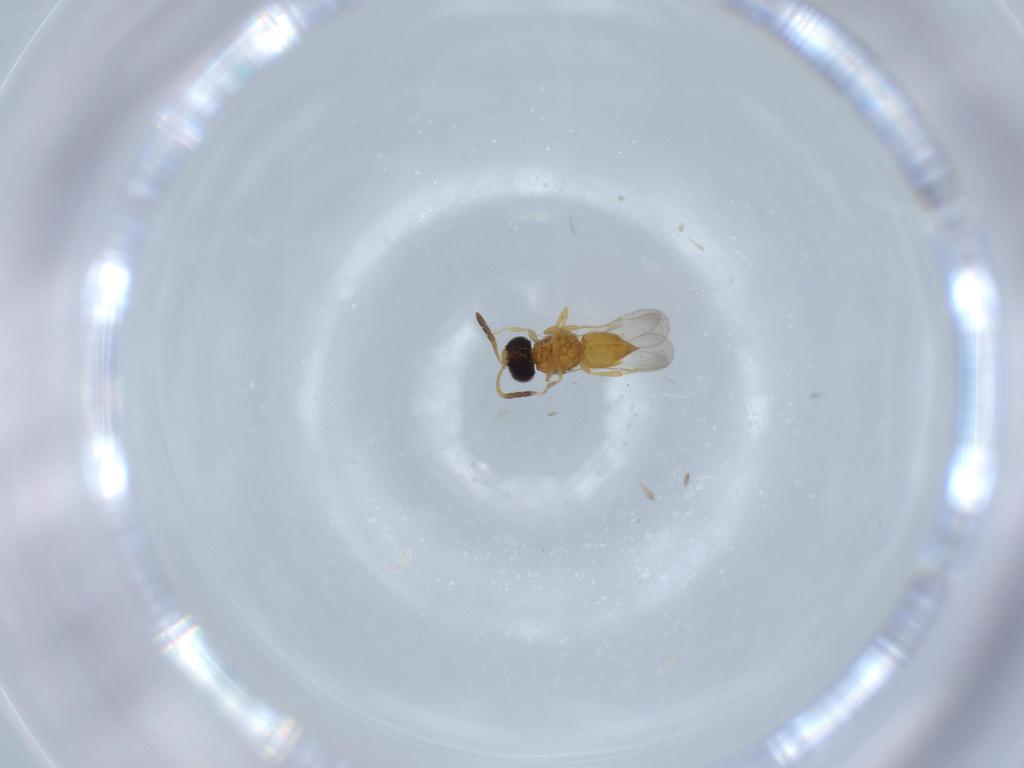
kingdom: Animalia
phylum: Arthropoda
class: Insecta
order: Hymenoptera
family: Ceraphronidae
